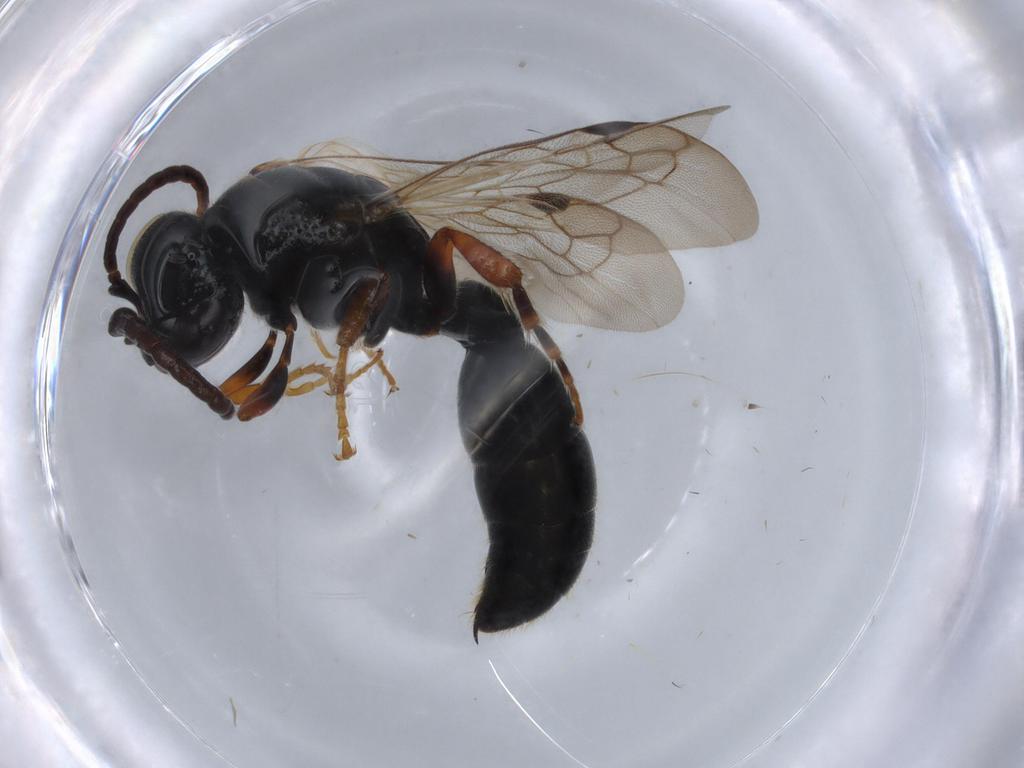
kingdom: Animalia
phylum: Arthropoda
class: Insecta
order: Hymenoptera
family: Tiphiidae
